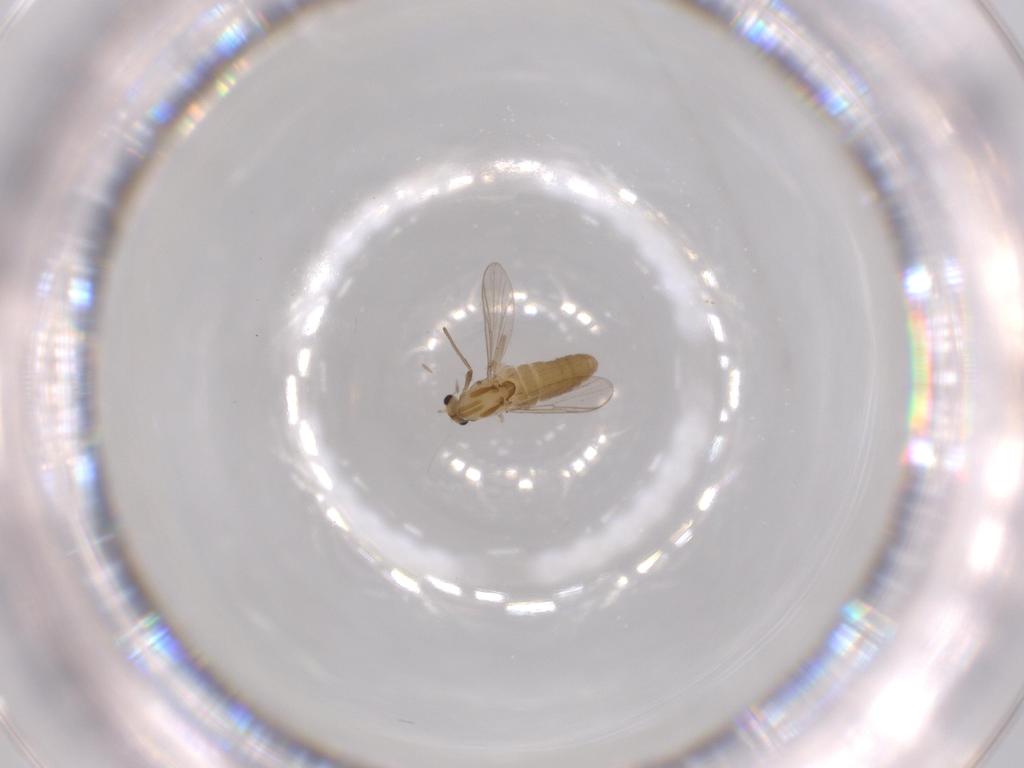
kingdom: Animalia
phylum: Arthropoda
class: Insecta
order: Diptera
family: Chironomidae
